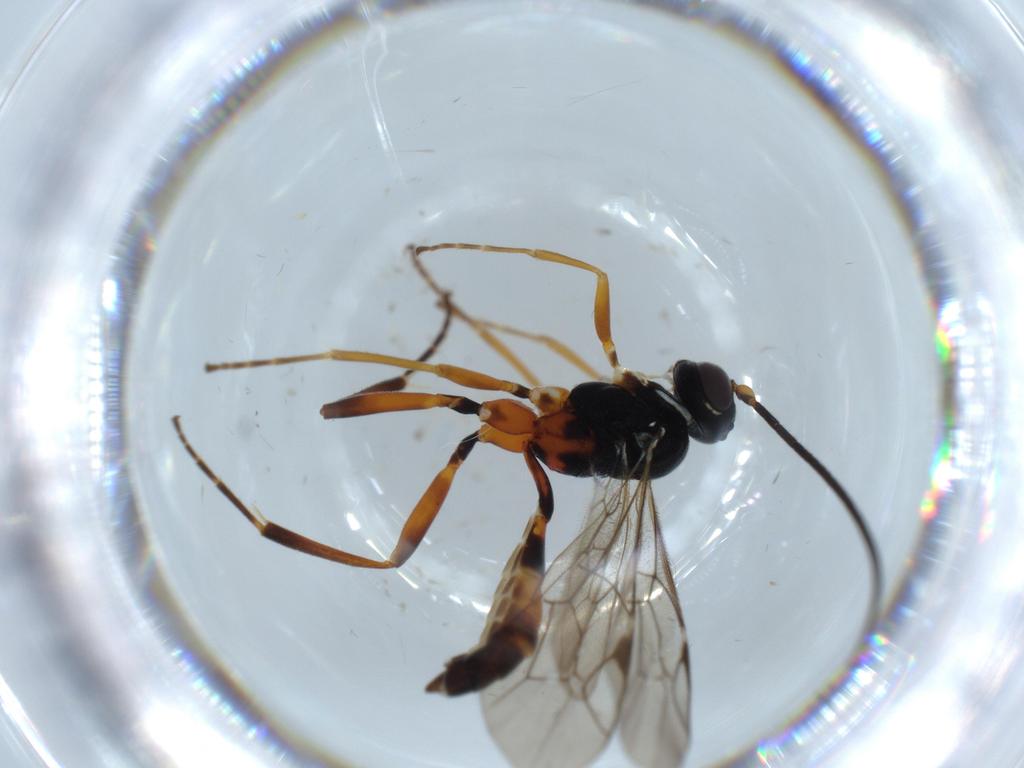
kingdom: Animalia
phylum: Arthropoda
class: Insecta
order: Hymenoptera
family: Ichneumonidae
